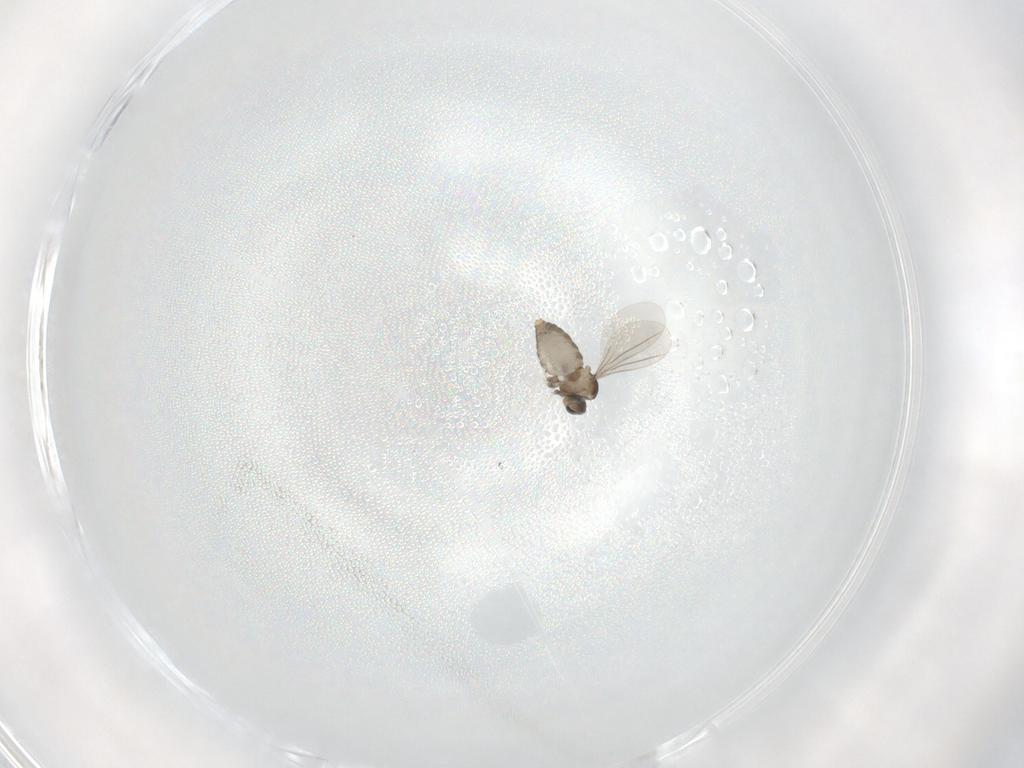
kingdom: Animalia
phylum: Arthropoda
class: Insecta
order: Diptera
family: Cecidomyiidae
